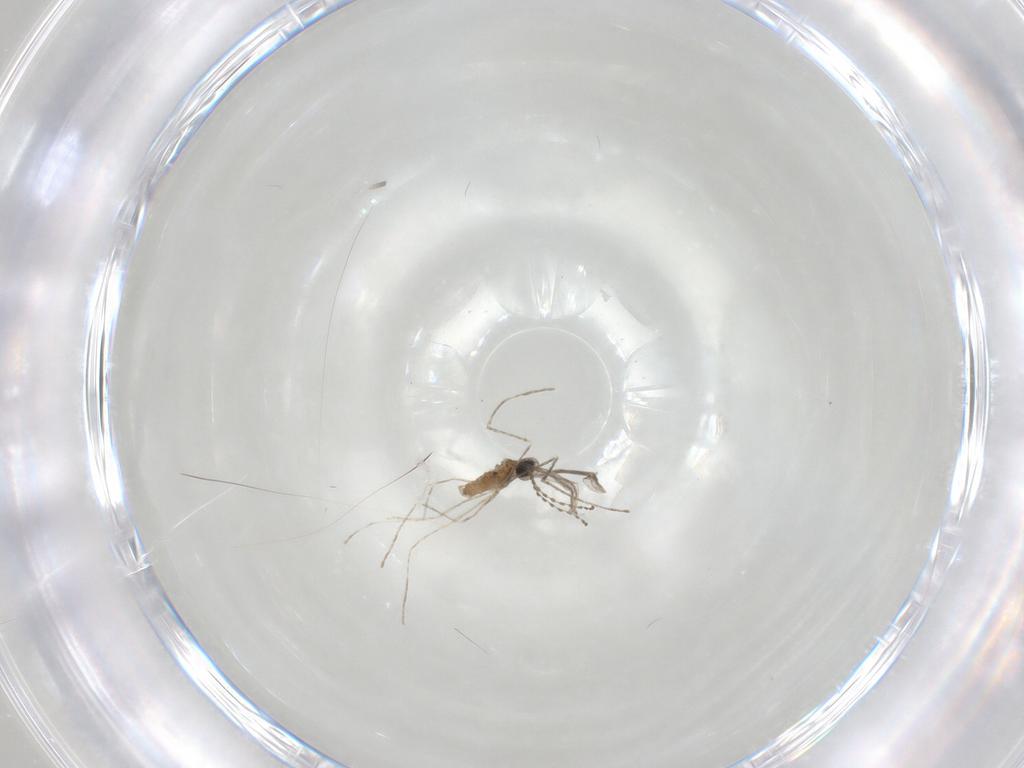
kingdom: Animalia
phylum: Arthropoda
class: Insecta
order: Diptera
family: Cecidomyiidae
